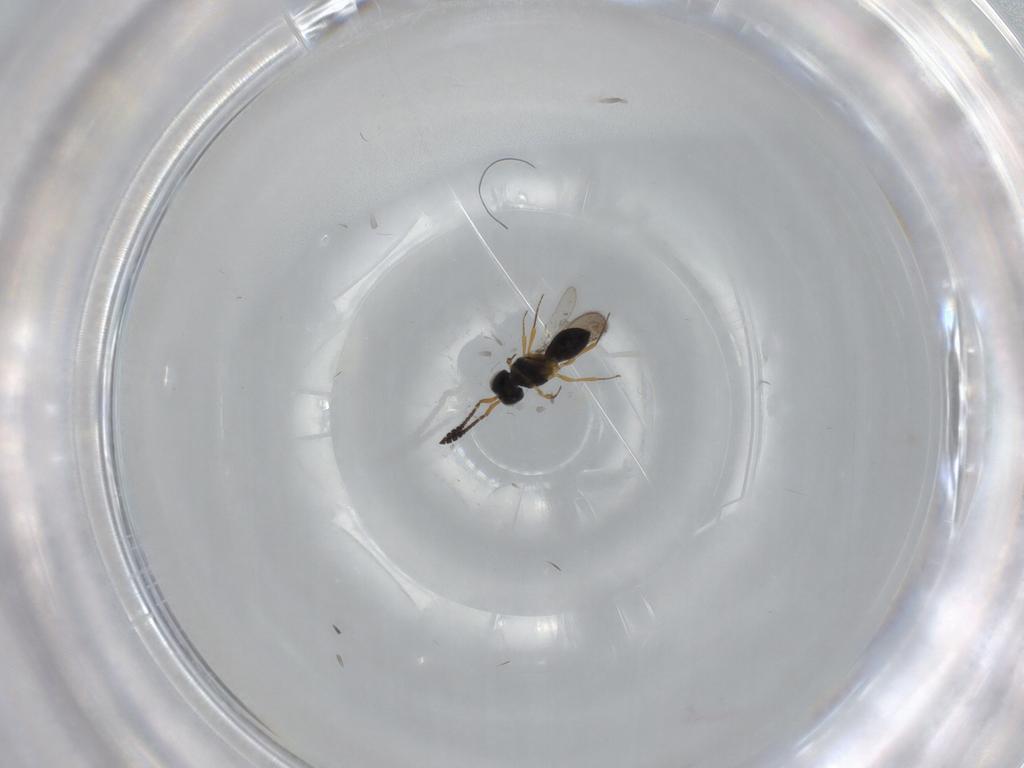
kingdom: Animalia
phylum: Arthropoda
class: Insecta
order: Hymenoptera
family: Scelionidae
